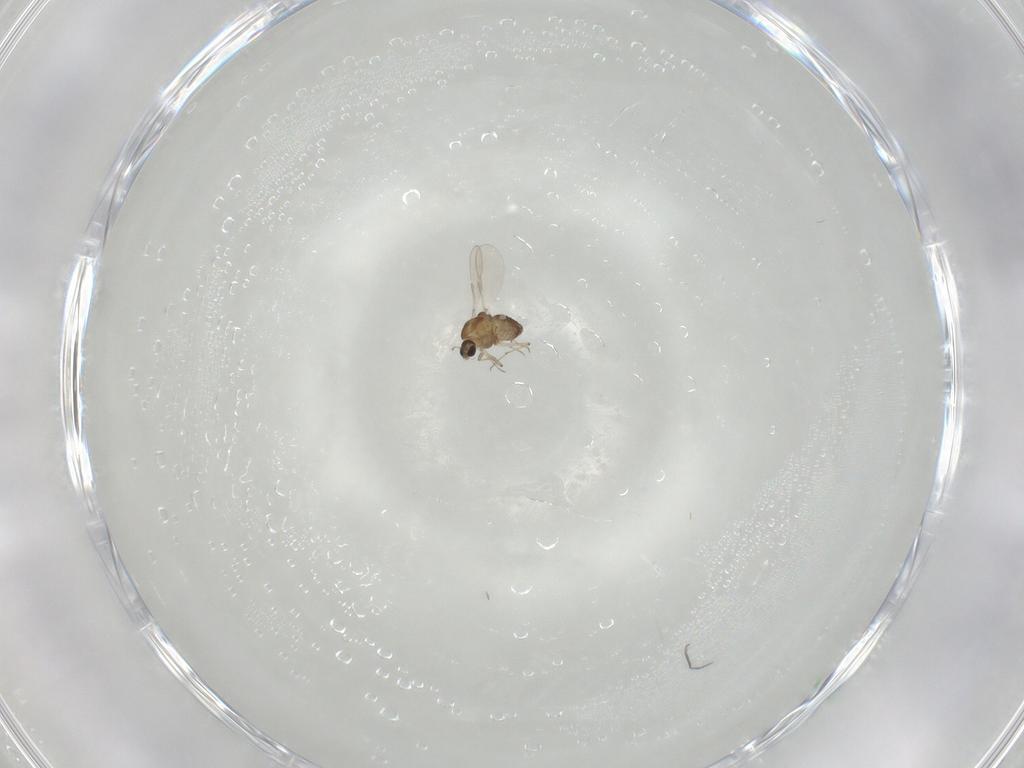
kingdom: Animalia
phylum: Arthropoda
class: Insecta
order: Diptera
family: Chironomidae
